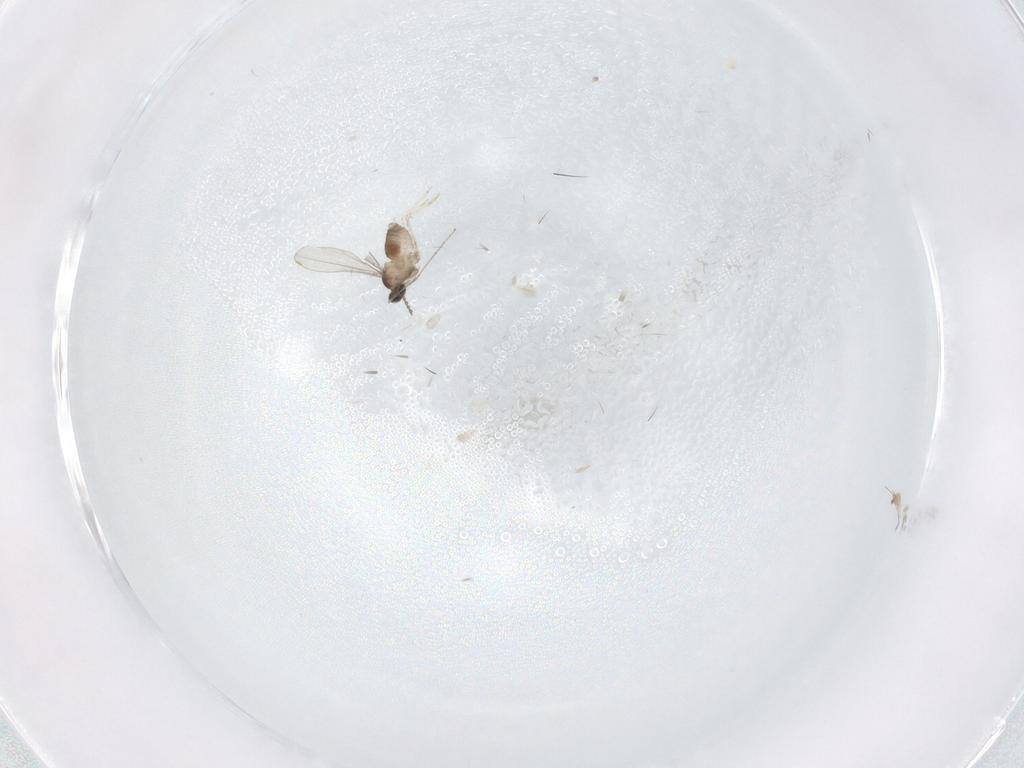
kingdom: Animalia
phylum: Arthropoda
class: Insecta
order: Diptera
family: Cecidomyiidae
